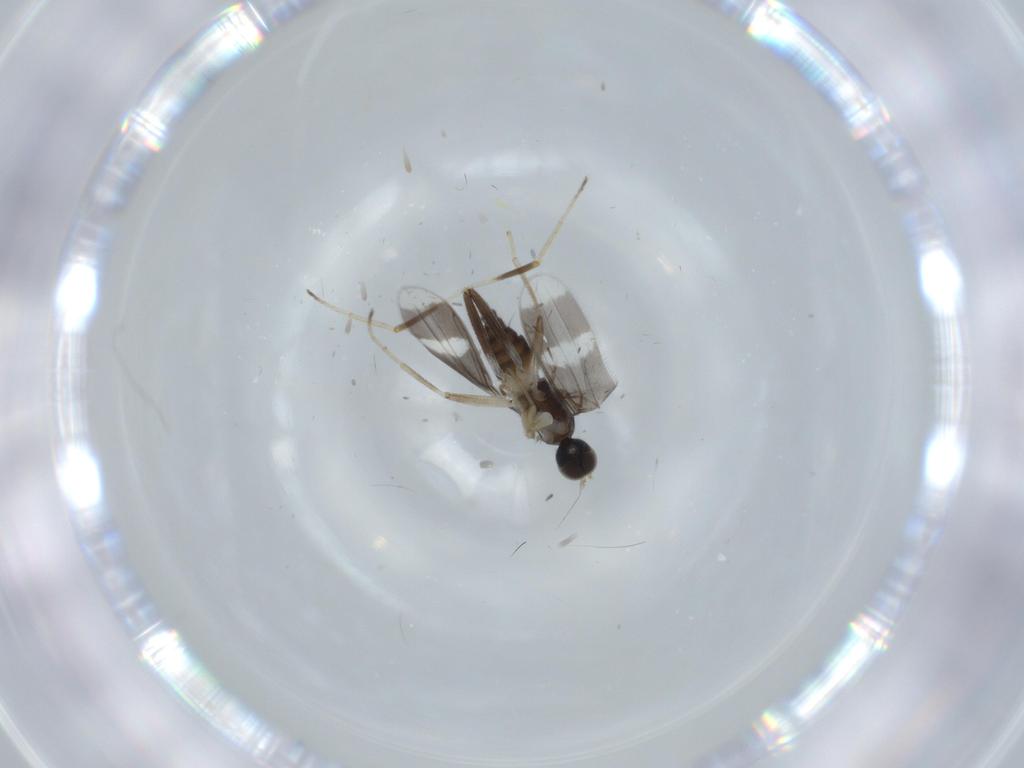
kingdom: Animalia
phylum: Arthropoda
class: Insecta
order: Diptera
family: Hybotidae
